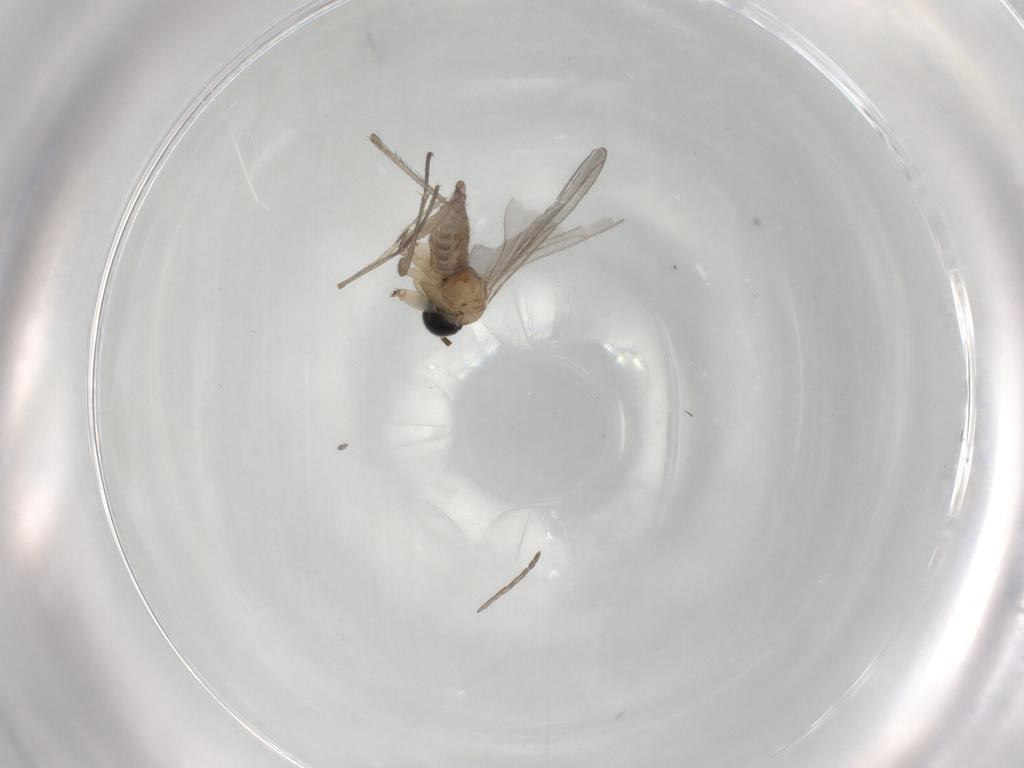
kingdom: Animalia
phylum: Arthropoda
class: Insecta
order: Diptera
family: Sciaridae
